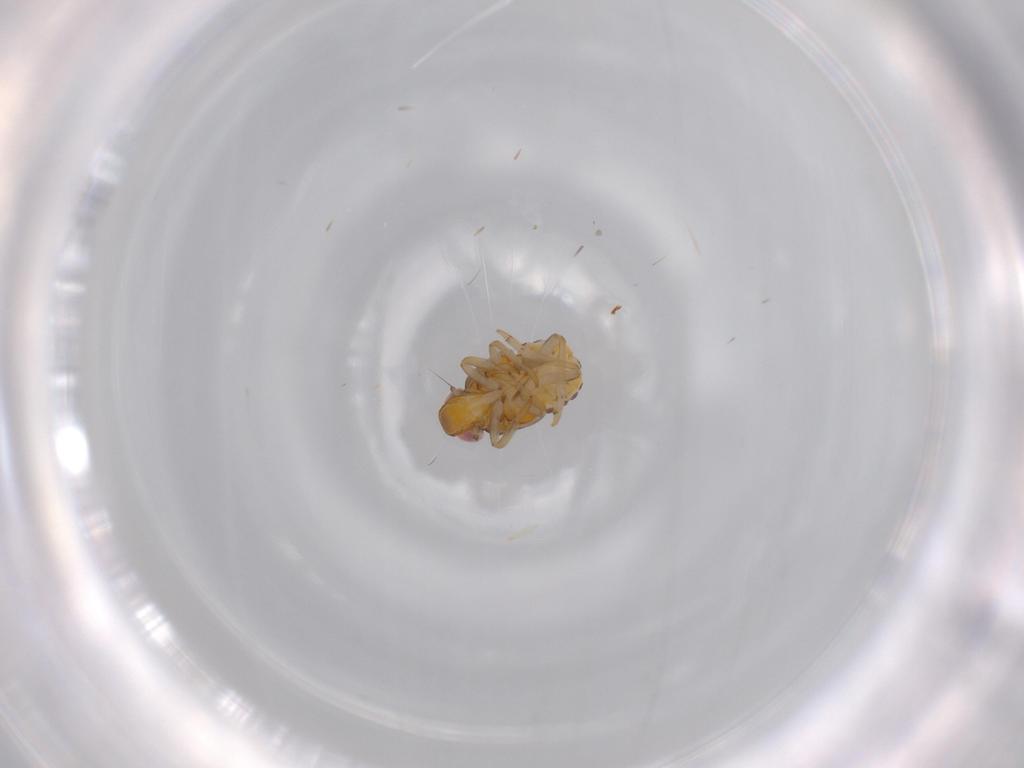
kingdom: Animalia
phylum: Arthropoda
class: Insecta
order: Hemiptera
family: Issidae
